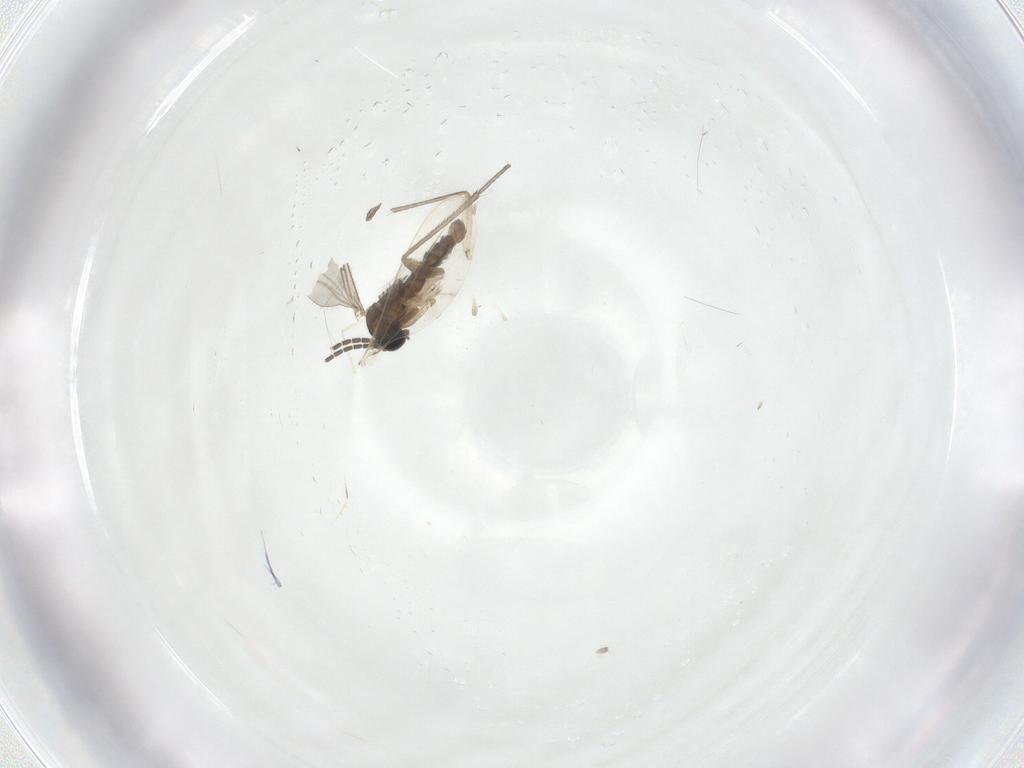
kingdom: Animalia
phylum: Arthropoda
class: Insecta
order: Diptera
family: Sciaridae
